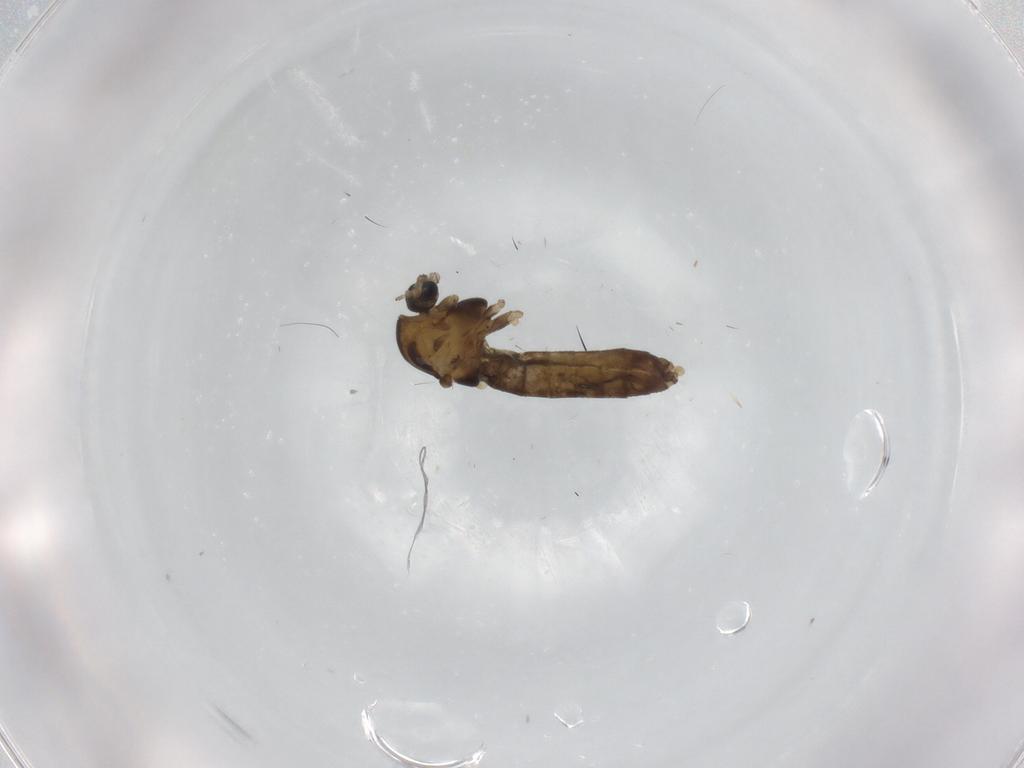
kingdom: Animalia
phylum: Arthropoda
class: Insecta
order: Diptera
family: Chironomidae
